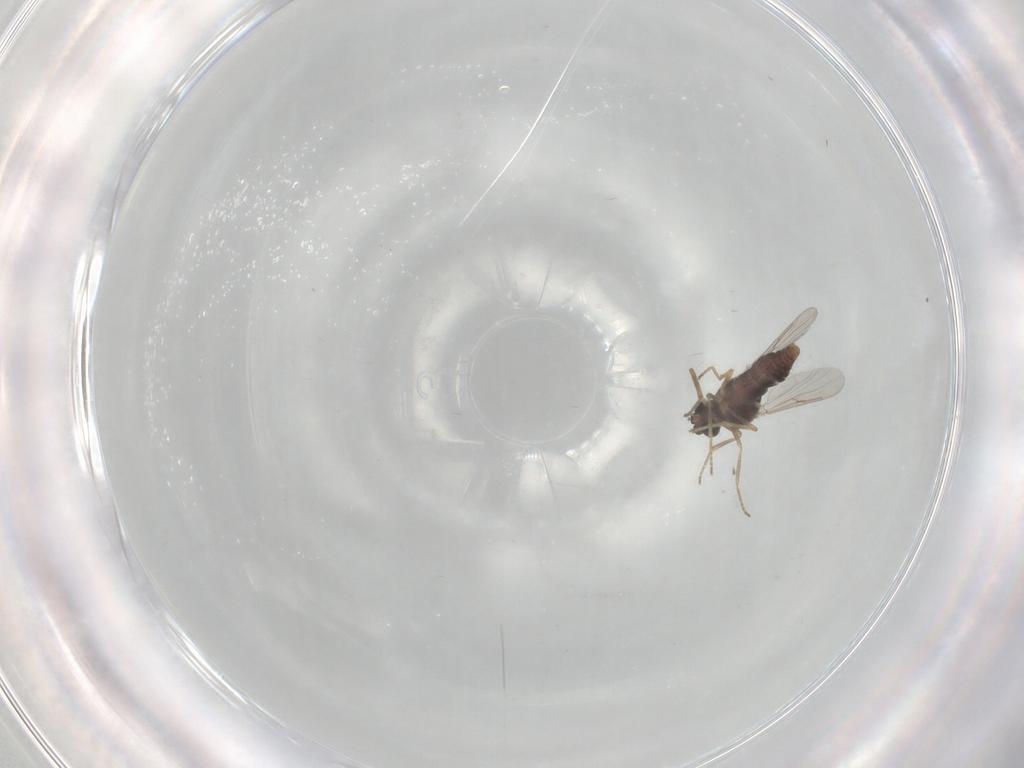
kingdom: Animalia
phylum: Arthropoda
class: Insecta
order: Diptera
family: Ceratopogonidae
